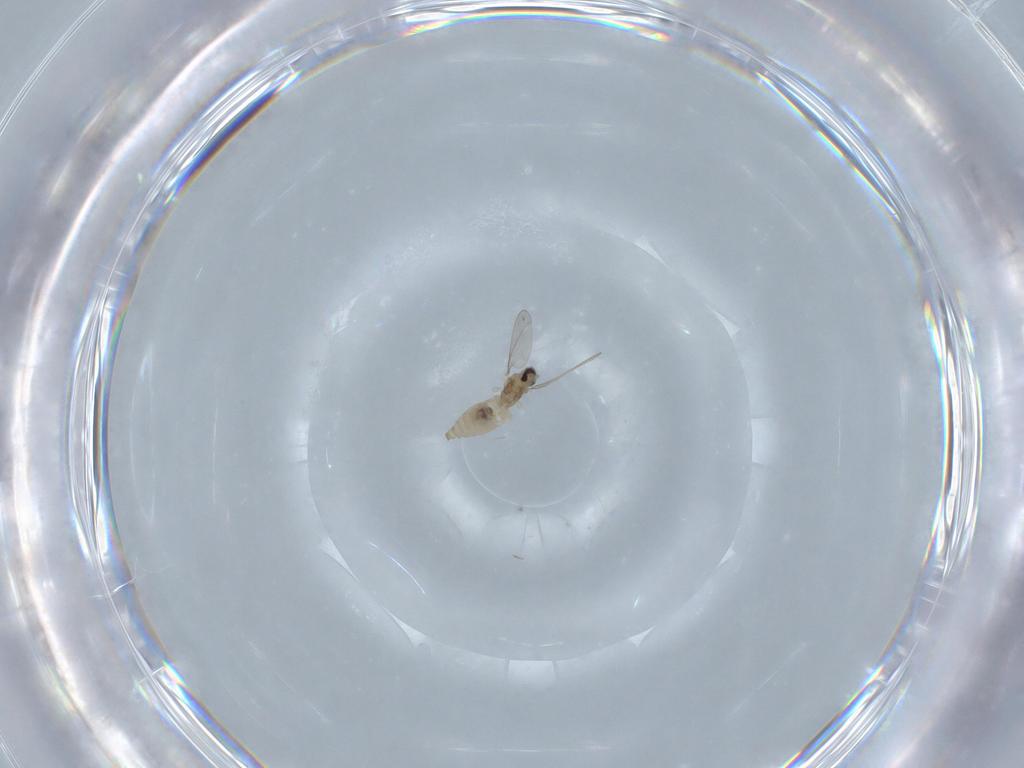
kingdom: Animalia
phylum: Arthropoda
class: Insecta
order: Diptera
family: Cecidomyiidae
